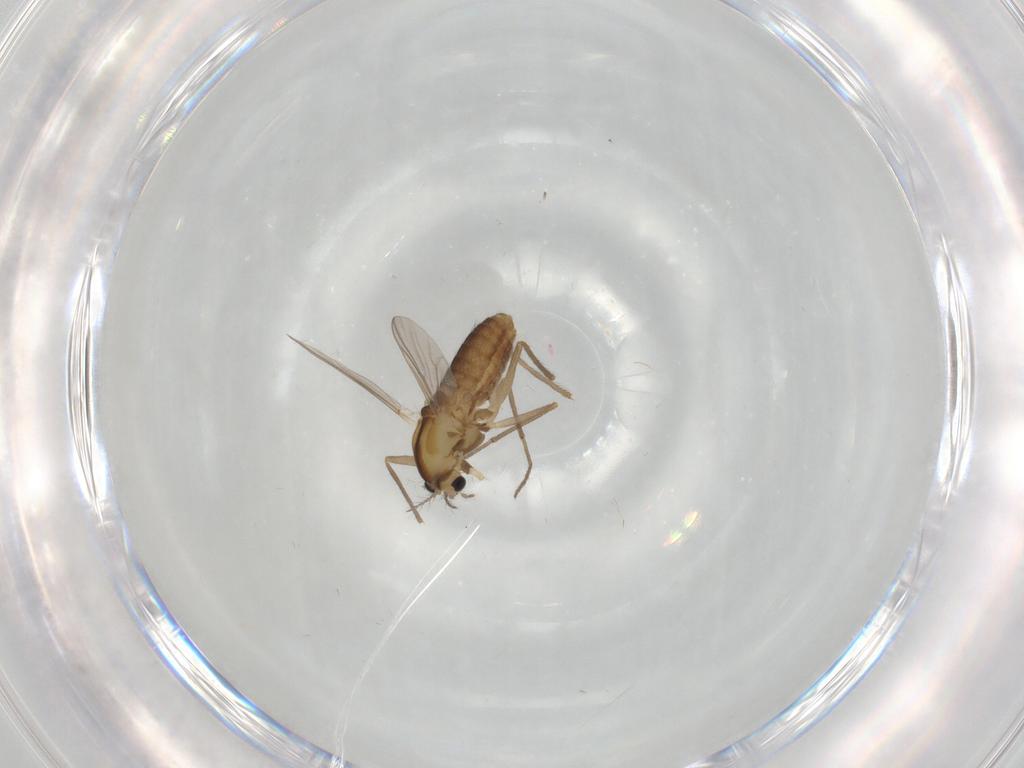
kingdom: Animalia
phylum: Arthropoda
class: Insecta
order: Diptera
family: Chironomidae
